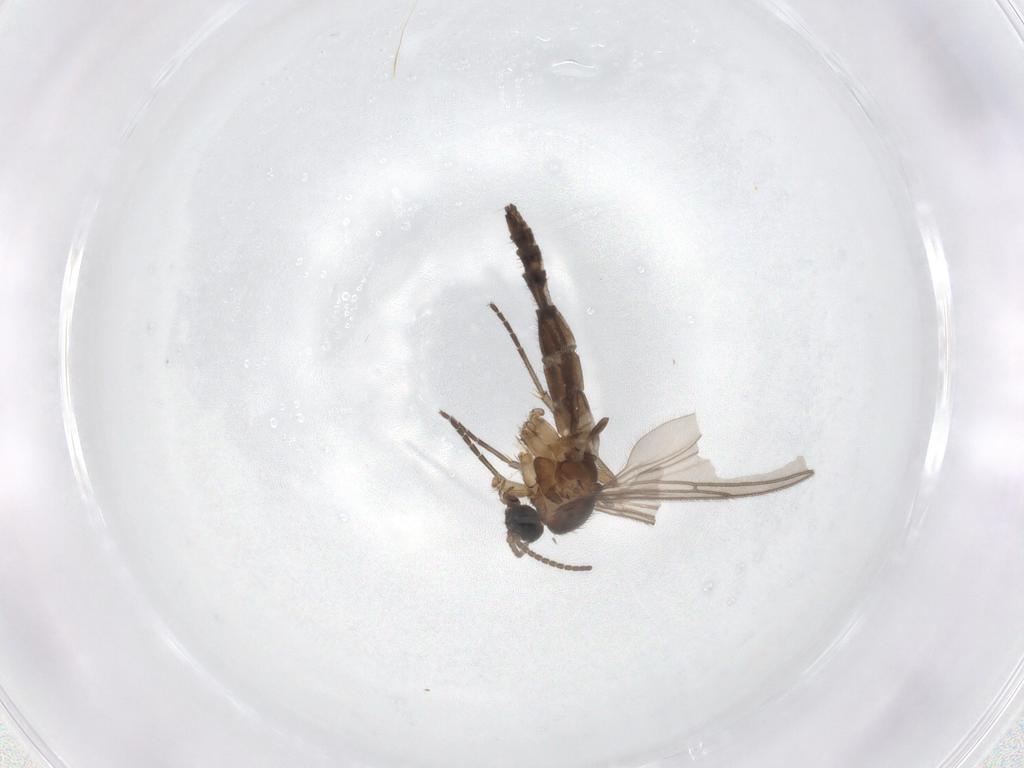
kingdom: Animalia
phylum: Arthropoda
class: Insecta
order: Diptera
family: Sciaridae
